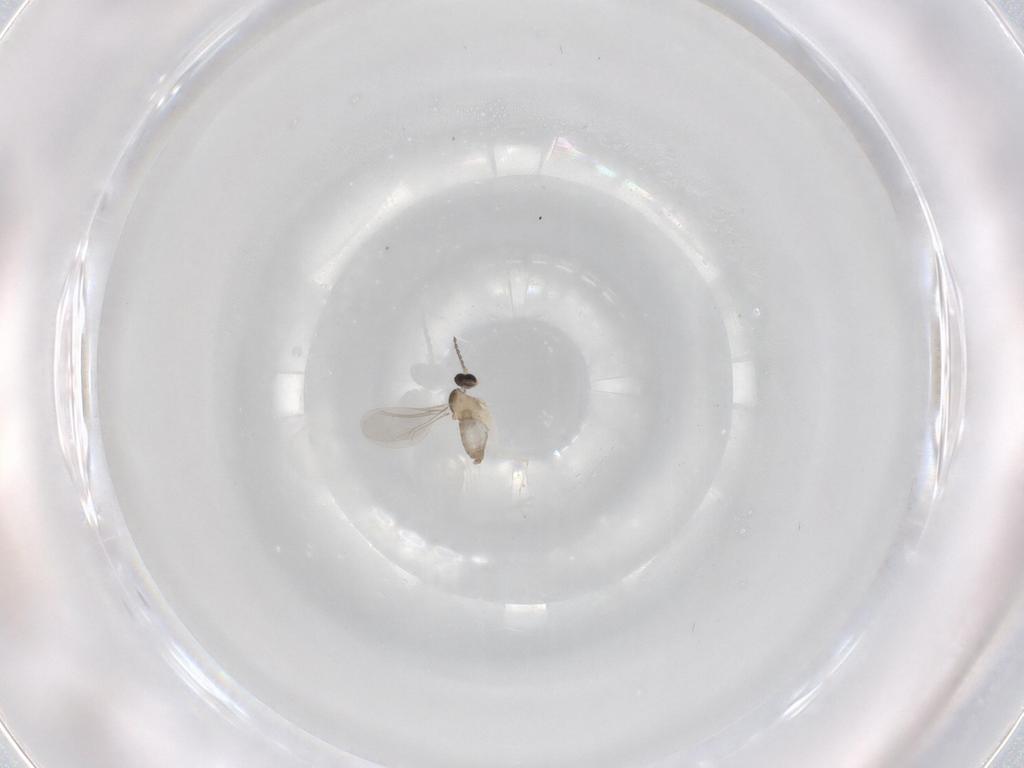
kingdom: Animalia
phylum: Arthropoda
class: Insecta
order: Diptera
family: Cecidomyiidae
